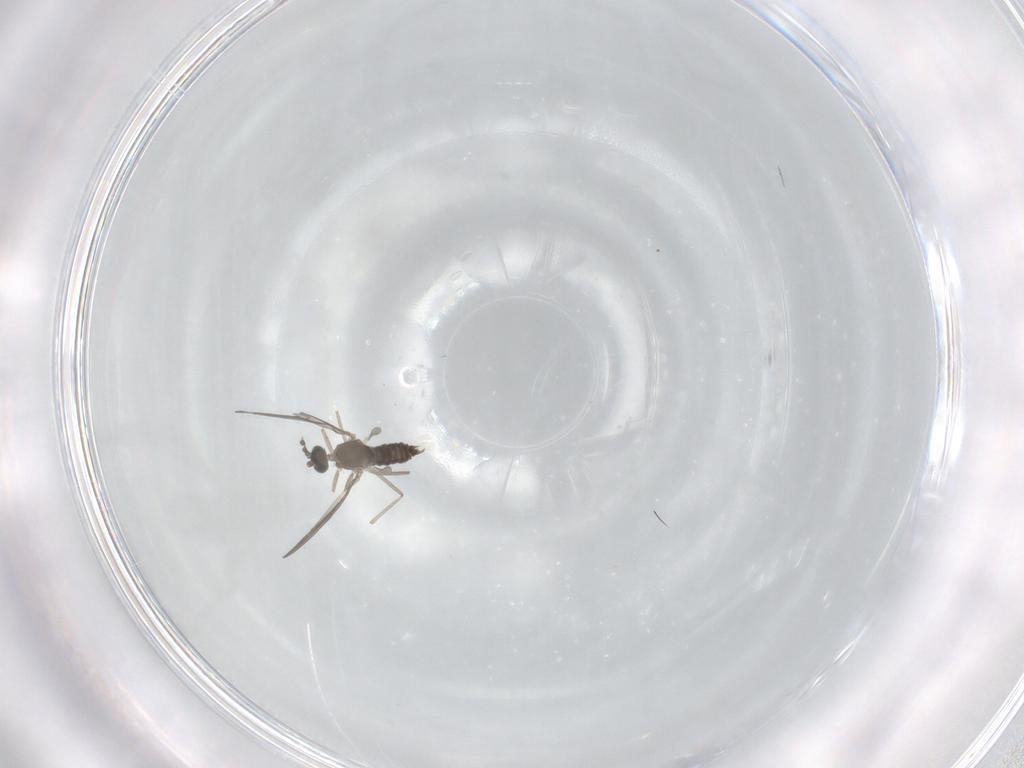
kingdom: Animalia
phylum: Arthropoda
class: Insecta
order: Diptera
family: Cecidomyiidae
